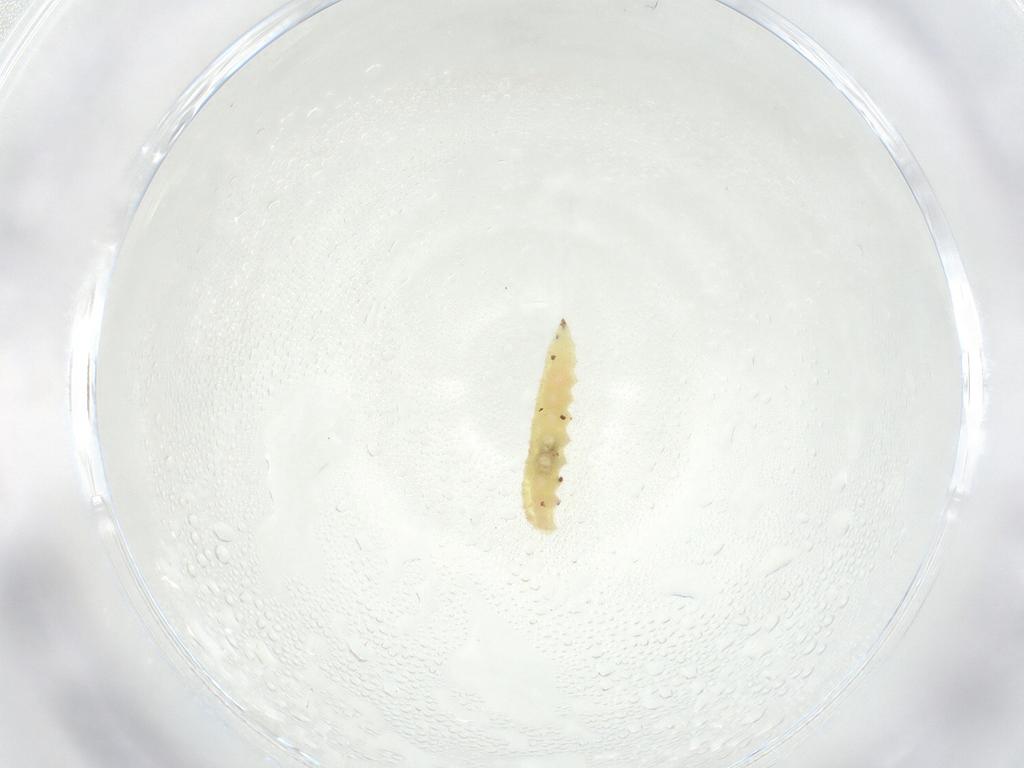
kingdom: Animalia
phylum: Arthropoda
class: Insecta
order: Diptera
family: Cecidomyiidae
